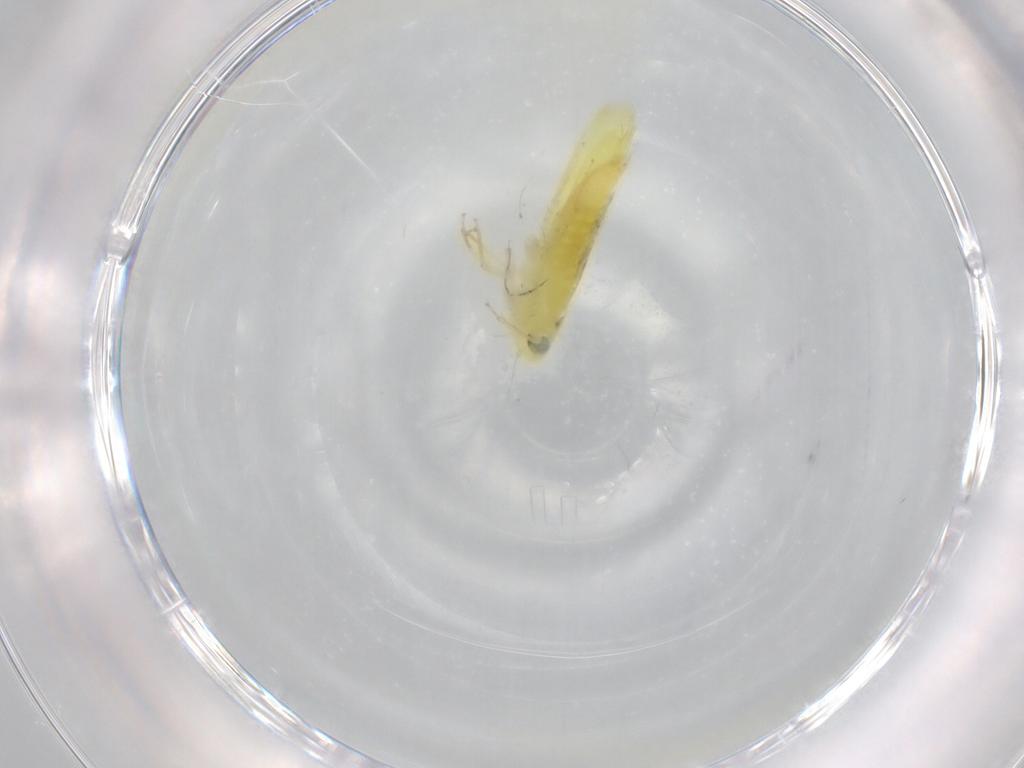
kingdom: Animalia
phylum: Arthropoda
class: Insecta
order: Hemiptera
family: Cicadellidae
